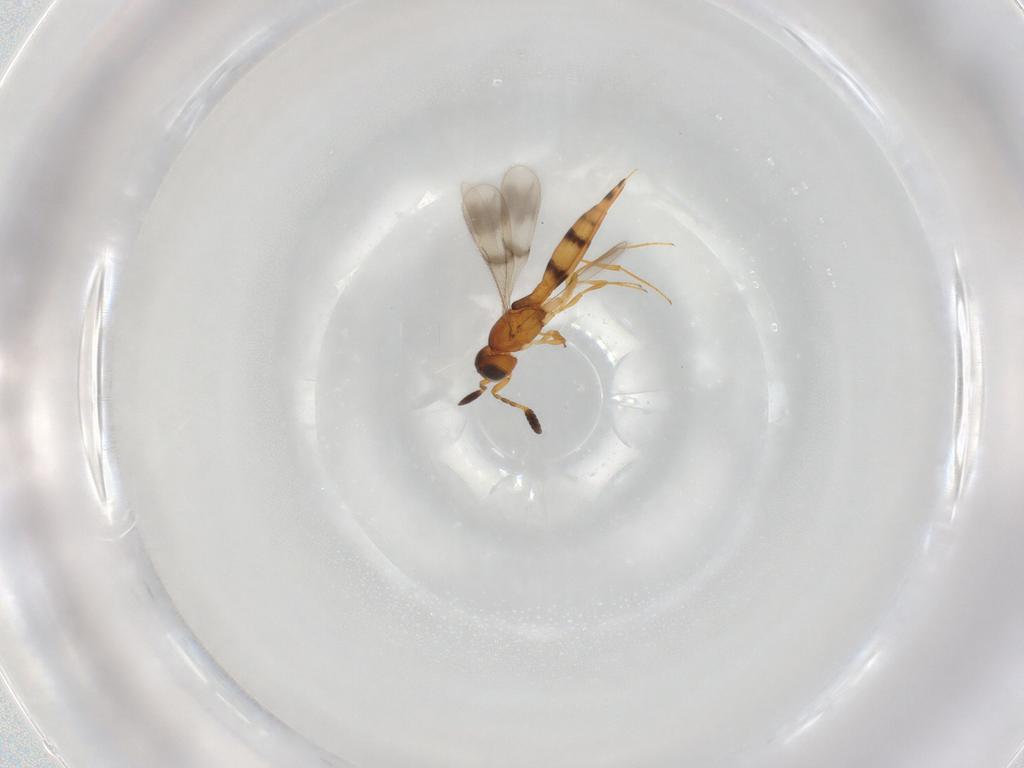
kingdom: Animalia
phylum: Arthropoda
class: Insecta
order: Hymenoptera
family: Scelionidae
